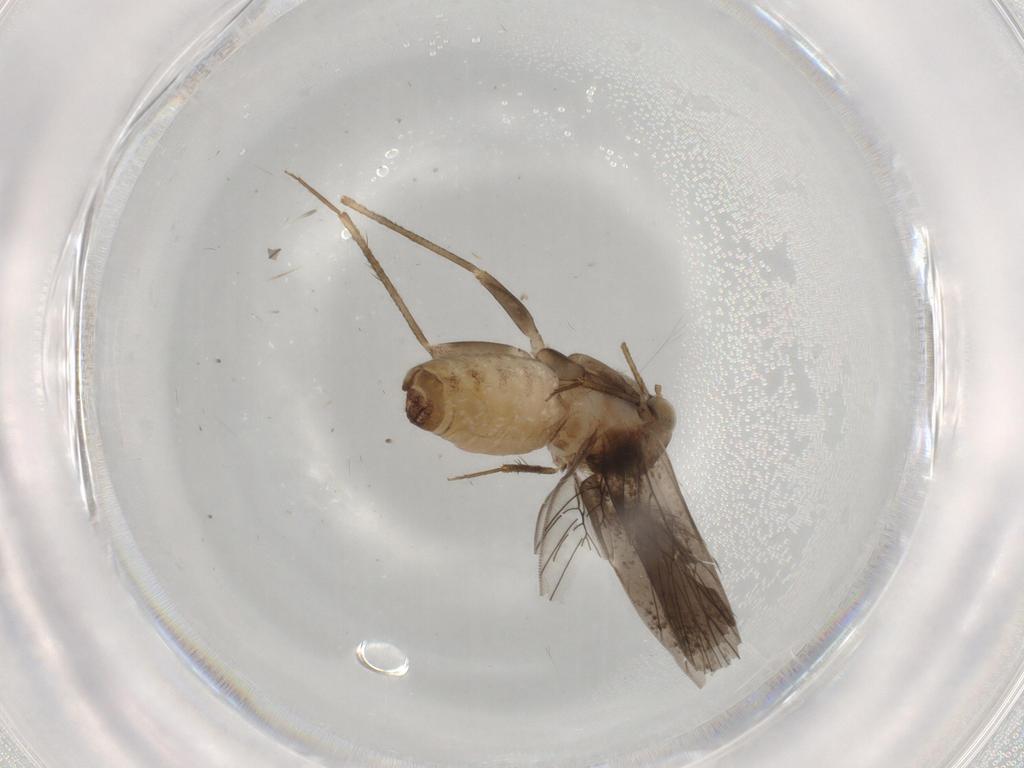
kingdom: Animalia
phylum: Arthropoda
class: Insecta
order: Psocodea
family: Lepidopsocidae
